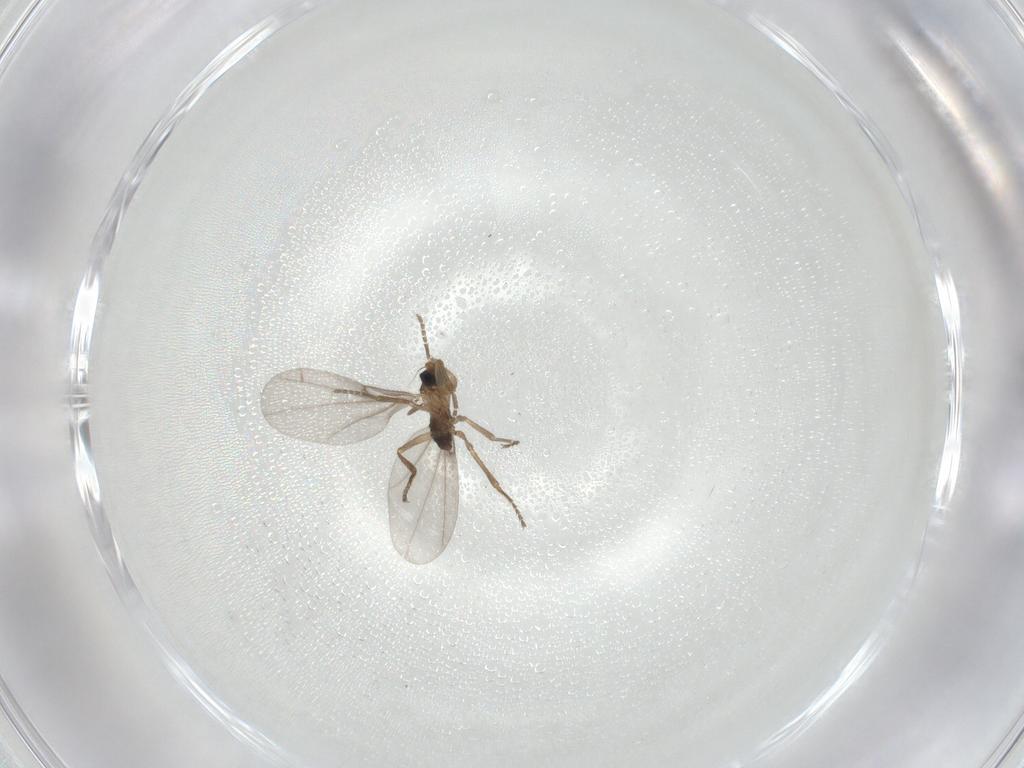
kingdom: Animalia
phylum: Arthropoda
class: Insecta
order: Diptera
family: Phoridae
